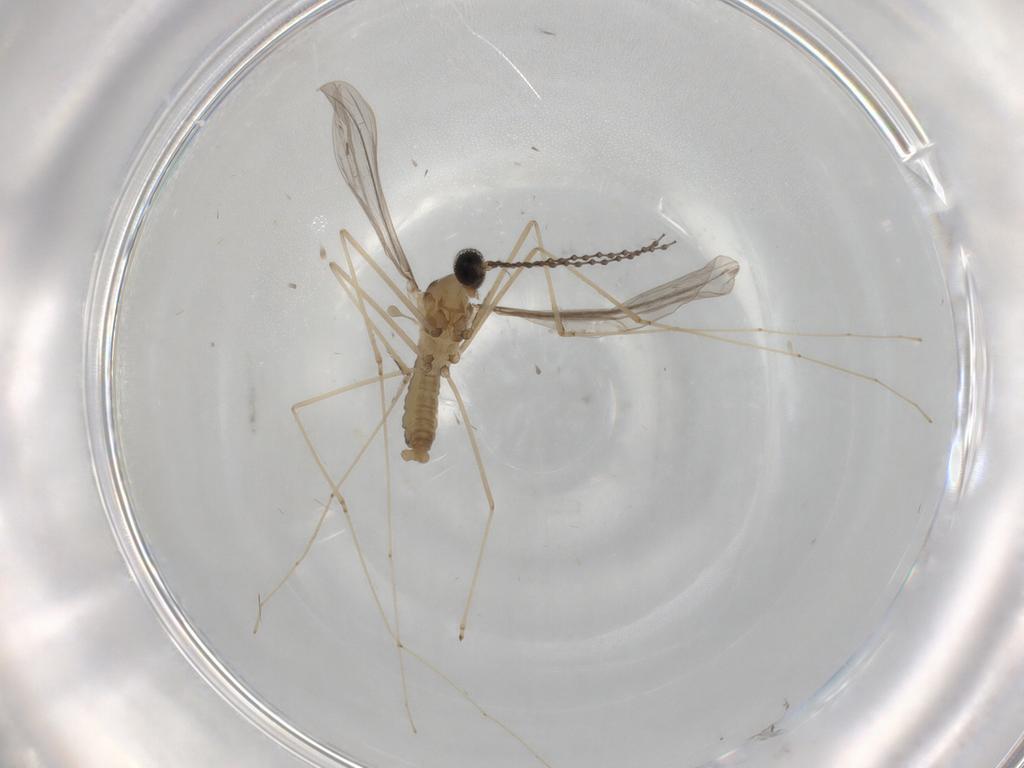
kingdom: Animalia
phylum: Arthropoda
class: Insecta
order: Diptera
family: Cecidomyiidae
